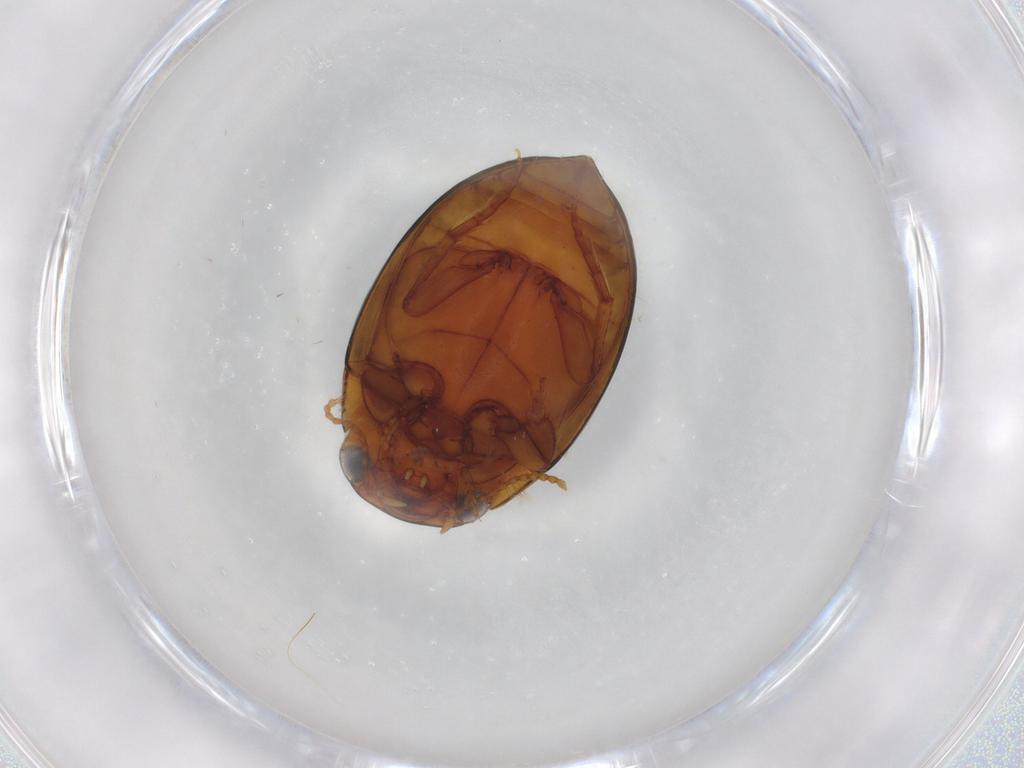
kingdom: Animalia
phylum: Arthropoda
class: Insecta
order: Coleoptera
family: Dytiscidae
